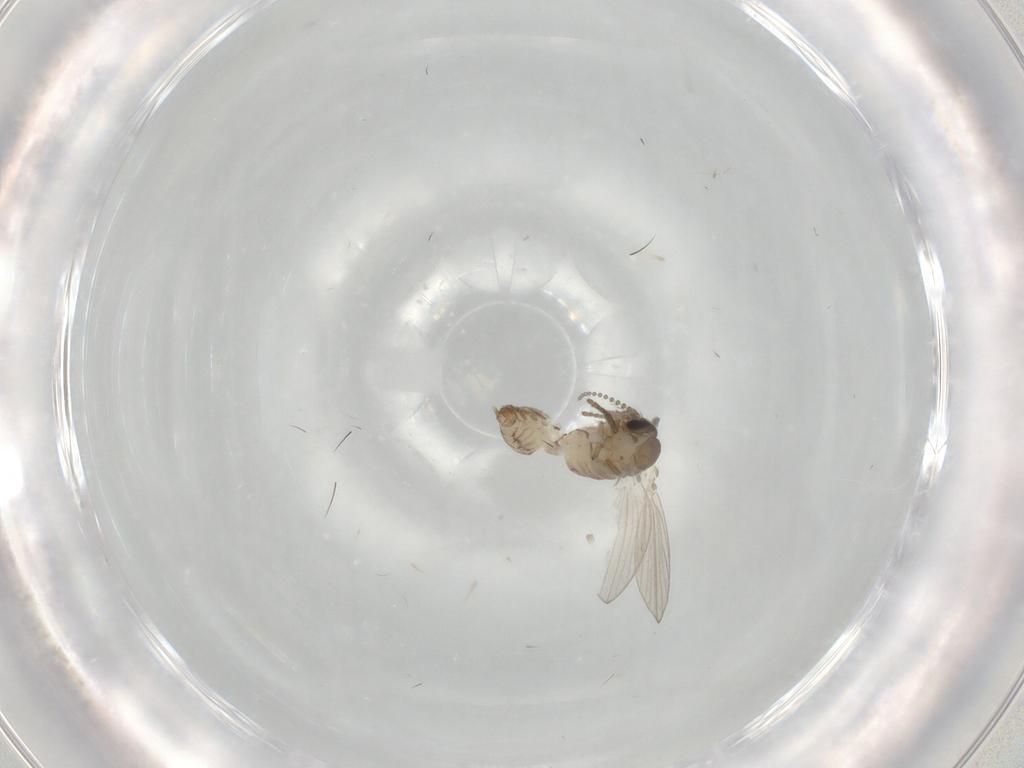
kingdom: Animalia
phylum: Arthropoda
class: Insecta
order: Diptera
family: Psychodidae
